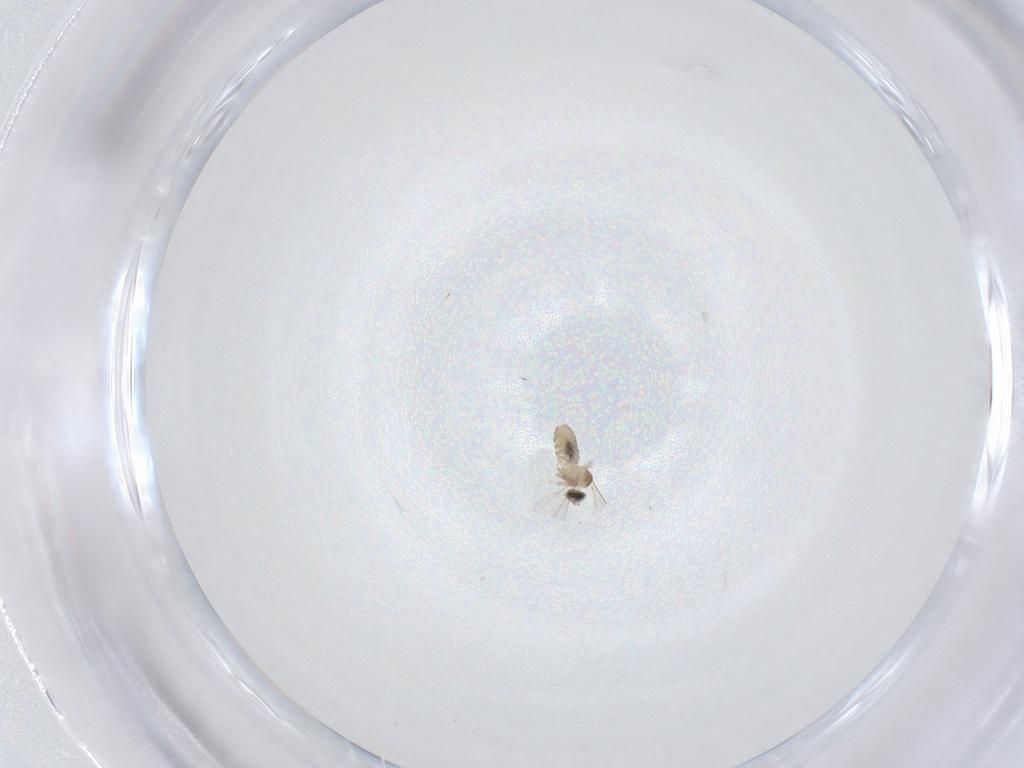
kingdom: Animalia
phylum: Arthropoda
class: Insecta
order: Diptera
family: Cecidomyiidae
